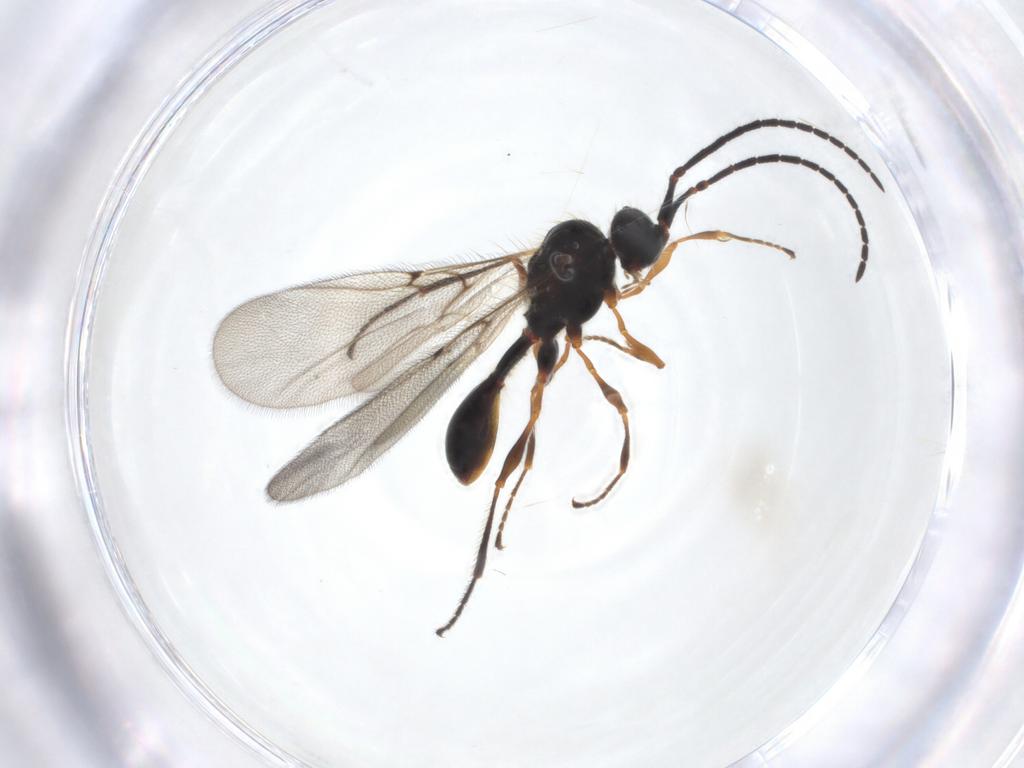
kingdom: Animalia
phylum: Arthropoda
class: Insecta
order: Hymenoptera
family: Diapriidae
